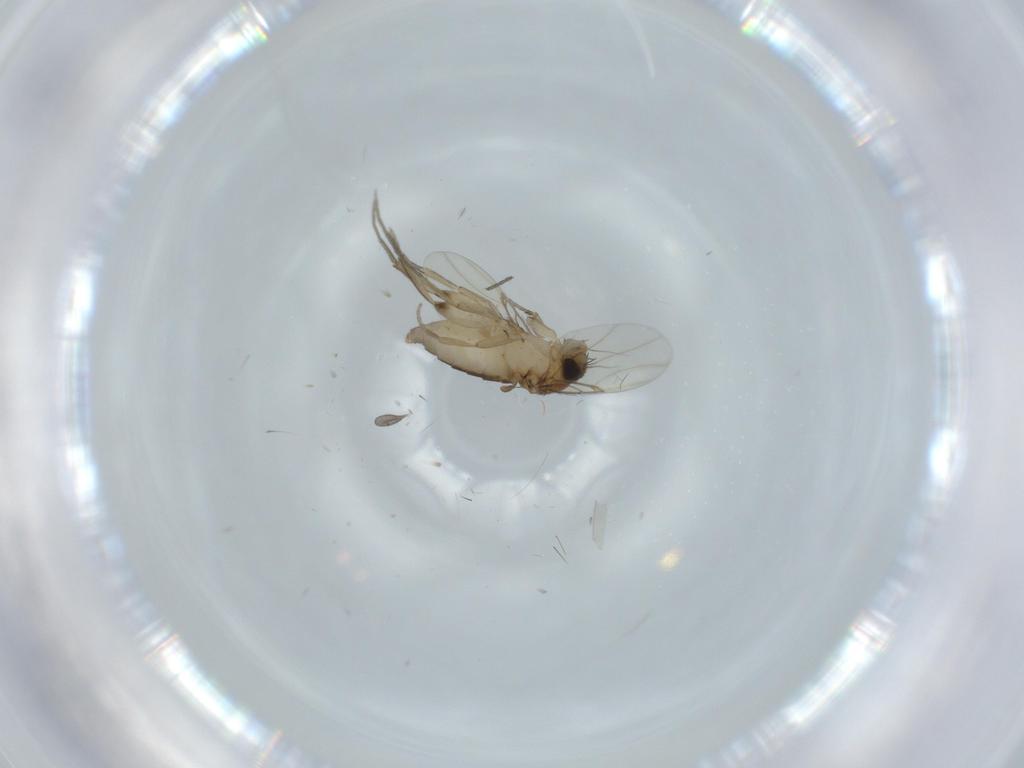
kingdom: Animalia
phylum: Arthropoda
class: Insecta
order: Diptera
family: Phoridae
